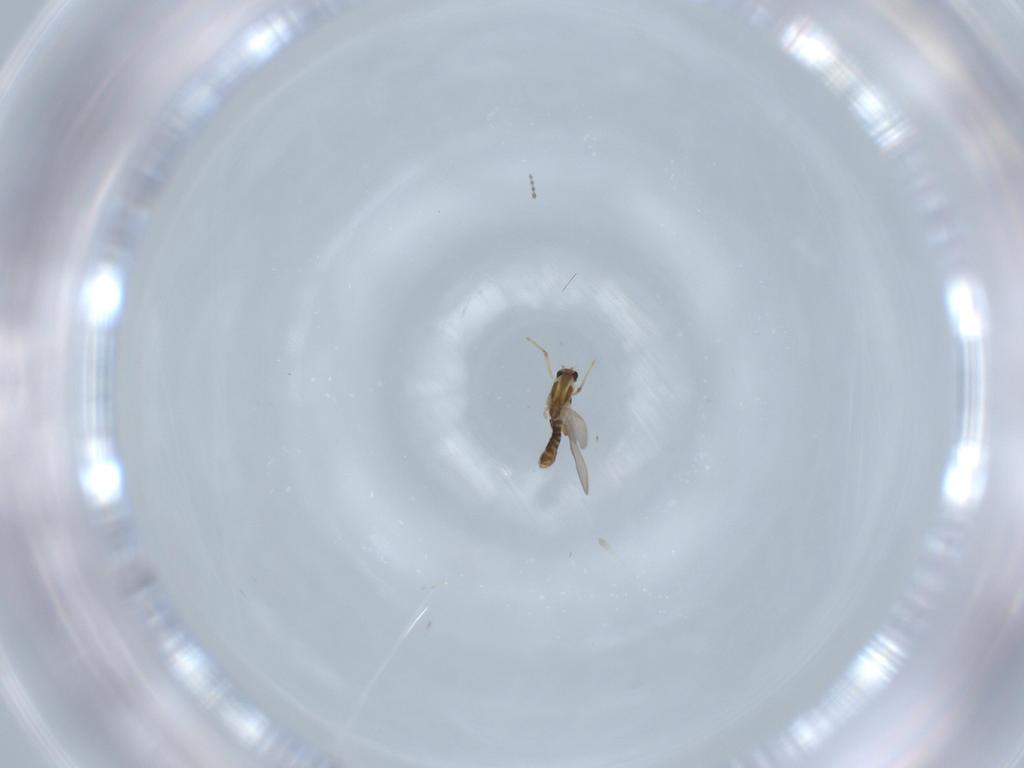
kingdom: Animalia
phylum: Arthropoda
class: Insecta
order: Diptera
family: Chironomidae
